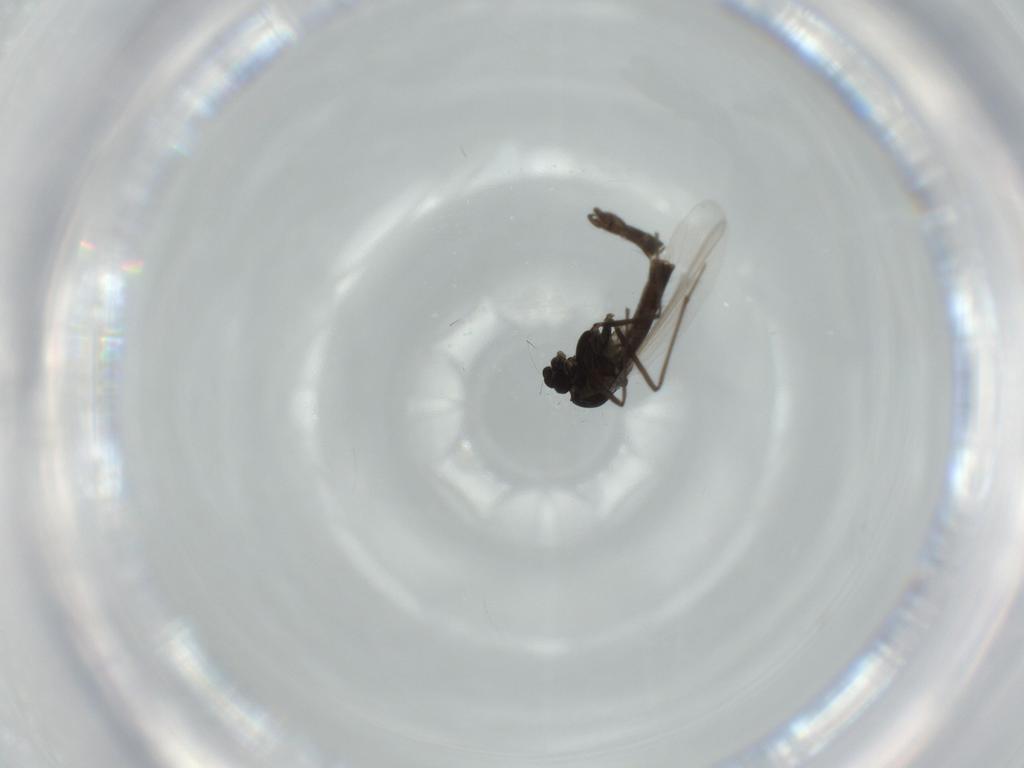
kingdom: Animalia
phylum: Arthropoda
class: Insecta
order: Diptera
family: Chironomidae
